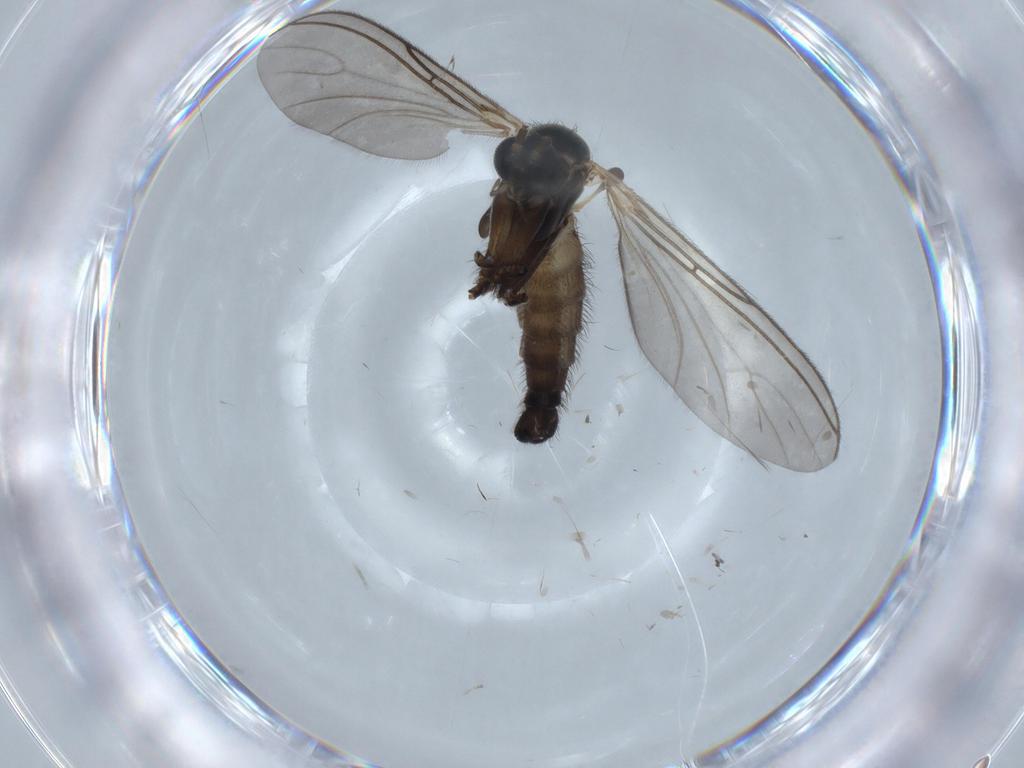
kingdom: Animalia
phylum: Arthropoda
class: Insecta
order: Diptera
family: Sciaridae
